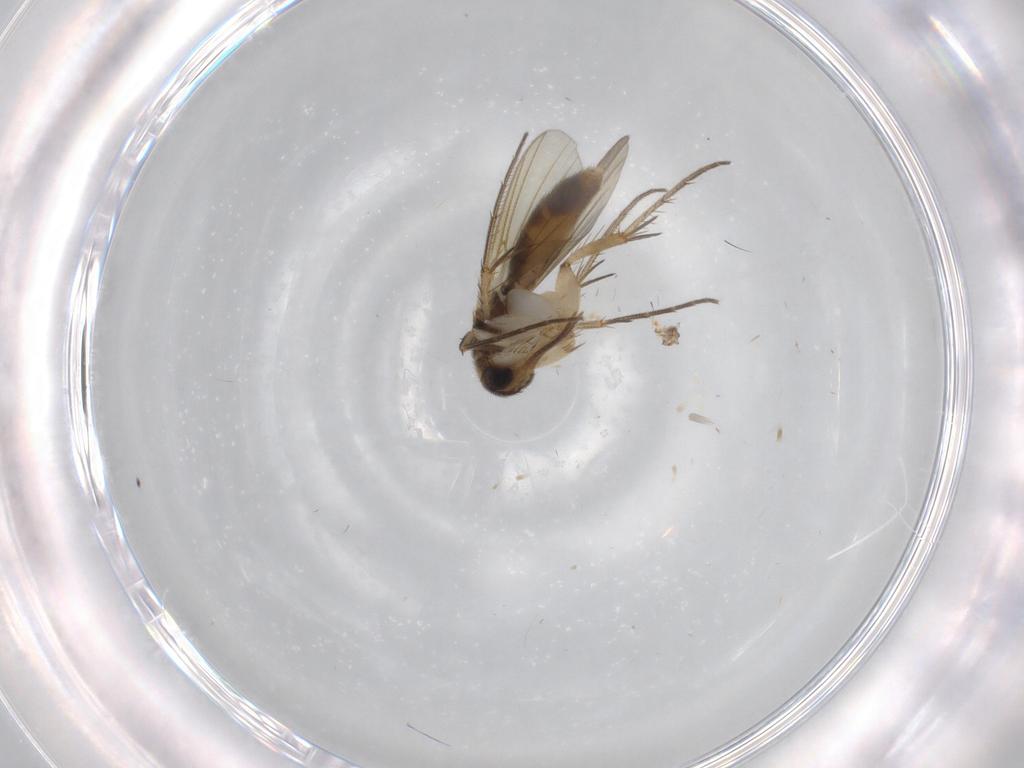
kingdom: Animalia
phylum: Arthropoda
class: Insecta
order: Diptera
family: Mycetophilidae
